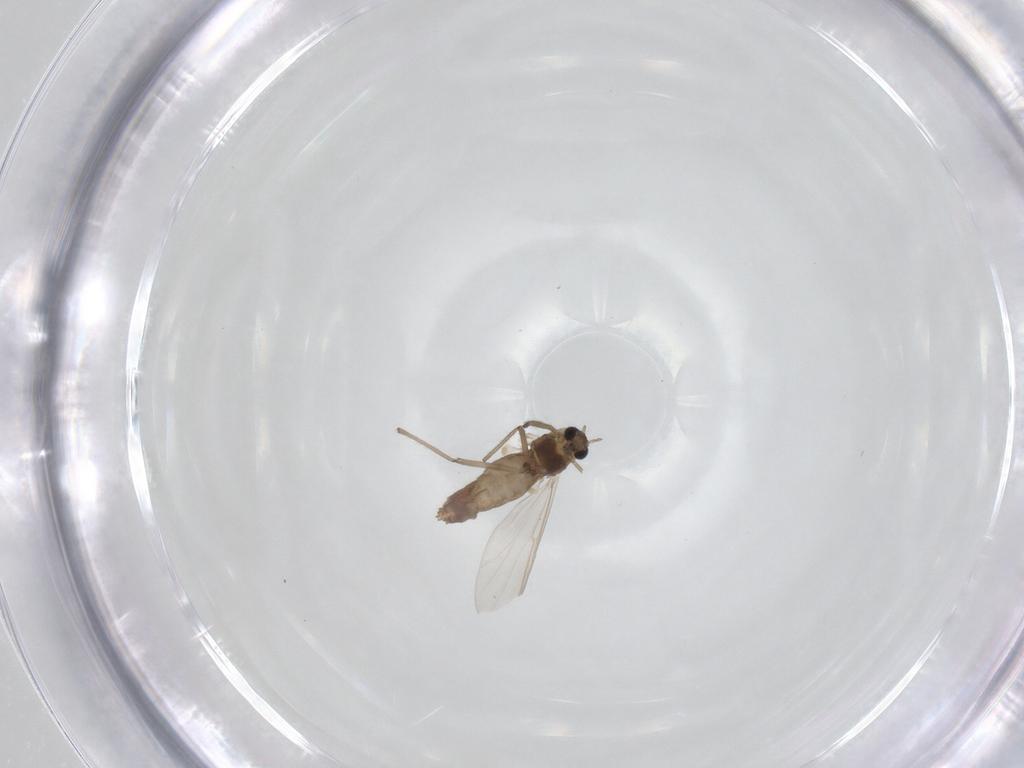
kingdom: Animalia
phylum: Arthropoda
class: Insecta
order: Diptera
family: Chironomidae
